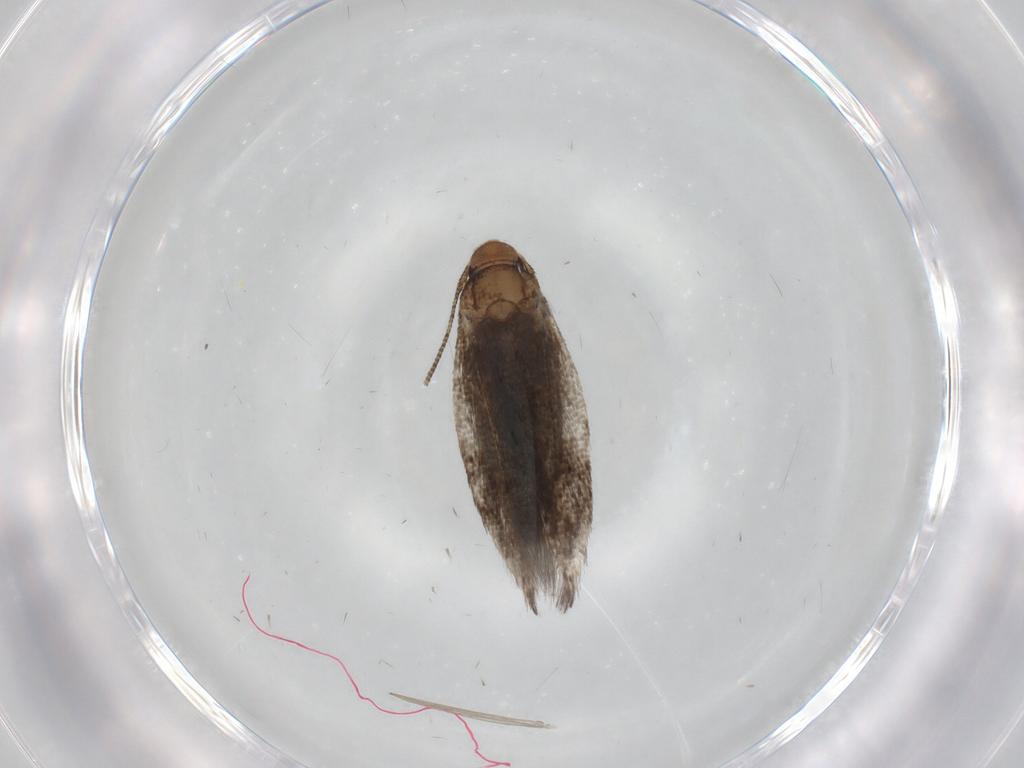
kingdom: Animalia
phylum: Arthropoda
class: Insecta
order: Lepidoptera
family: Gelechiidae
